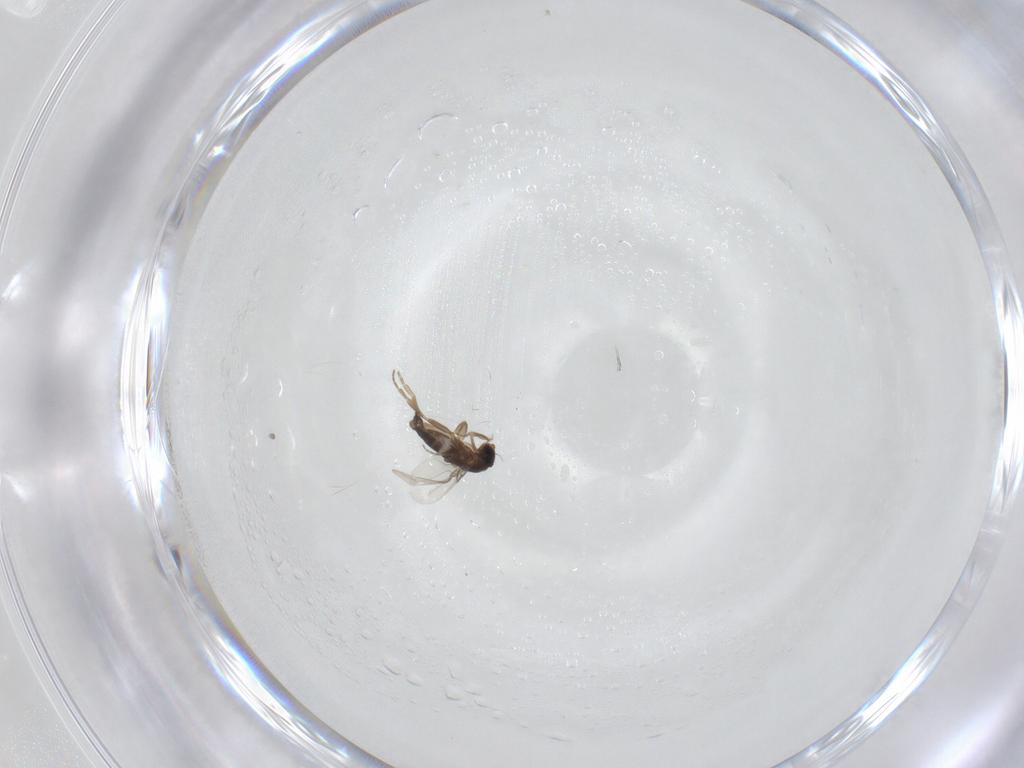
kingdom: Animalia
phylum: Arthropoda
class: Insecta
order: Diptera
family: Phoridae
